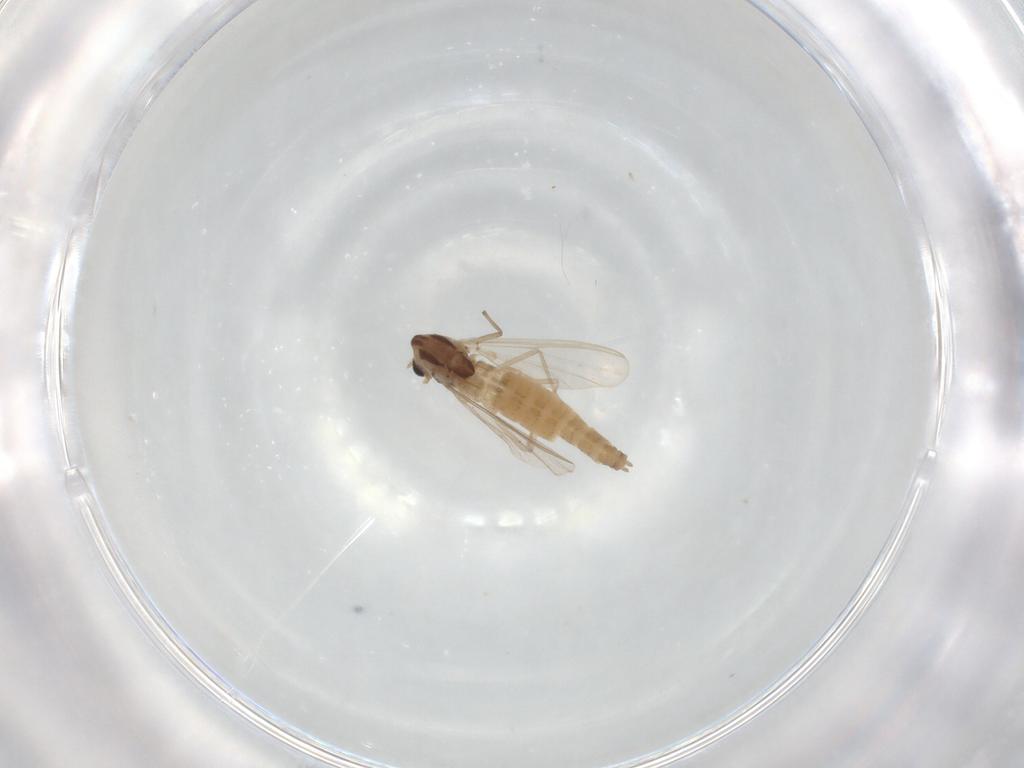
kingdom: Animalia
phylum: Arthropoda
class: Insecta
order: Diptera
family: Chironomidae
